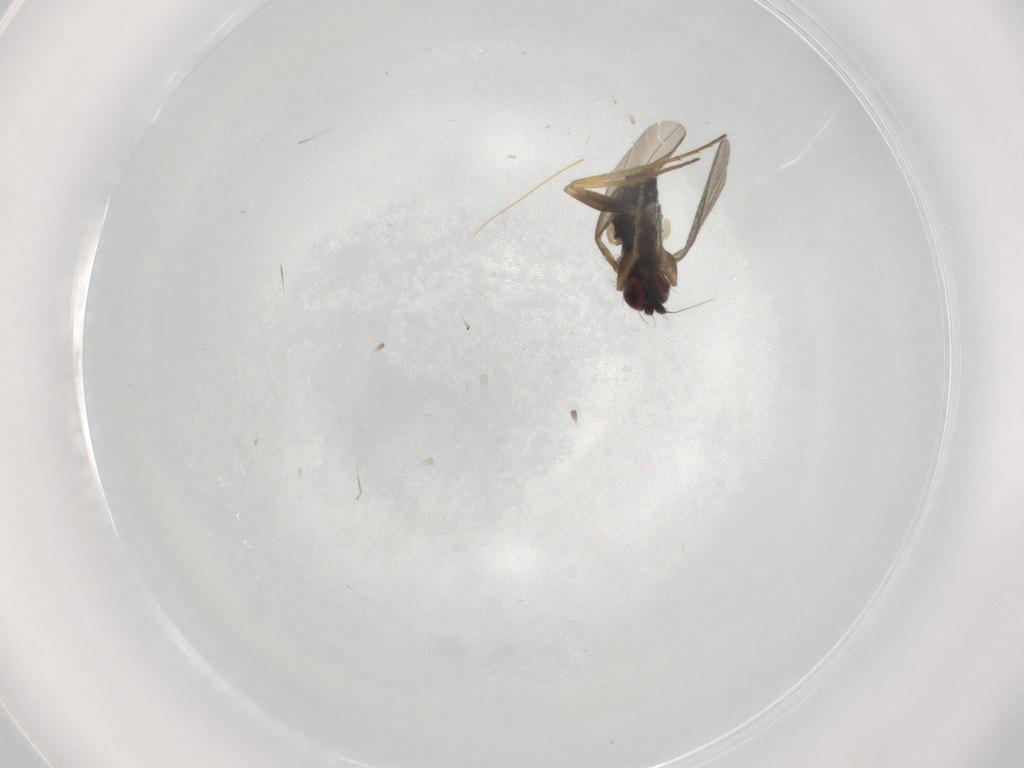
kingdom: Animalia
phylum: Arthropoda
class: Insecta
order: Diptera
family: Dolichopodidae
